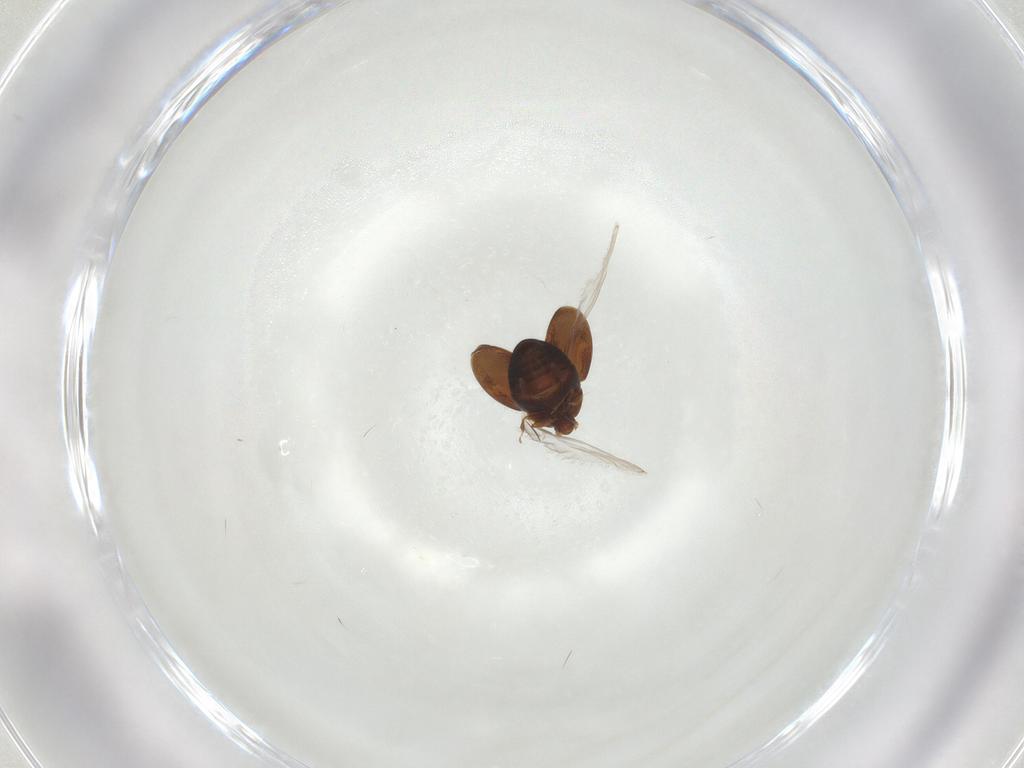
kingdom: Animalia
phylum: Arthropoda
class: Insecta
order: Coleoptera
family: Corylophidae
